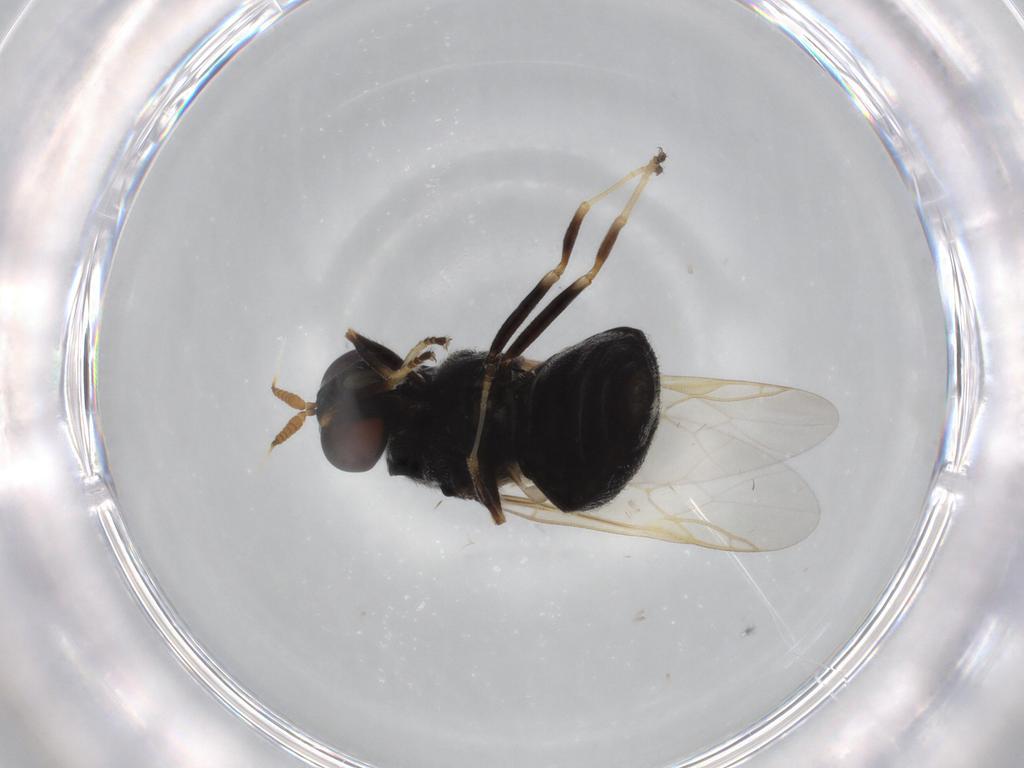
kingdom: Animalia
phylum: Arthropoda
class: Insecta
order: Diptera
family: Stratiomyidae
